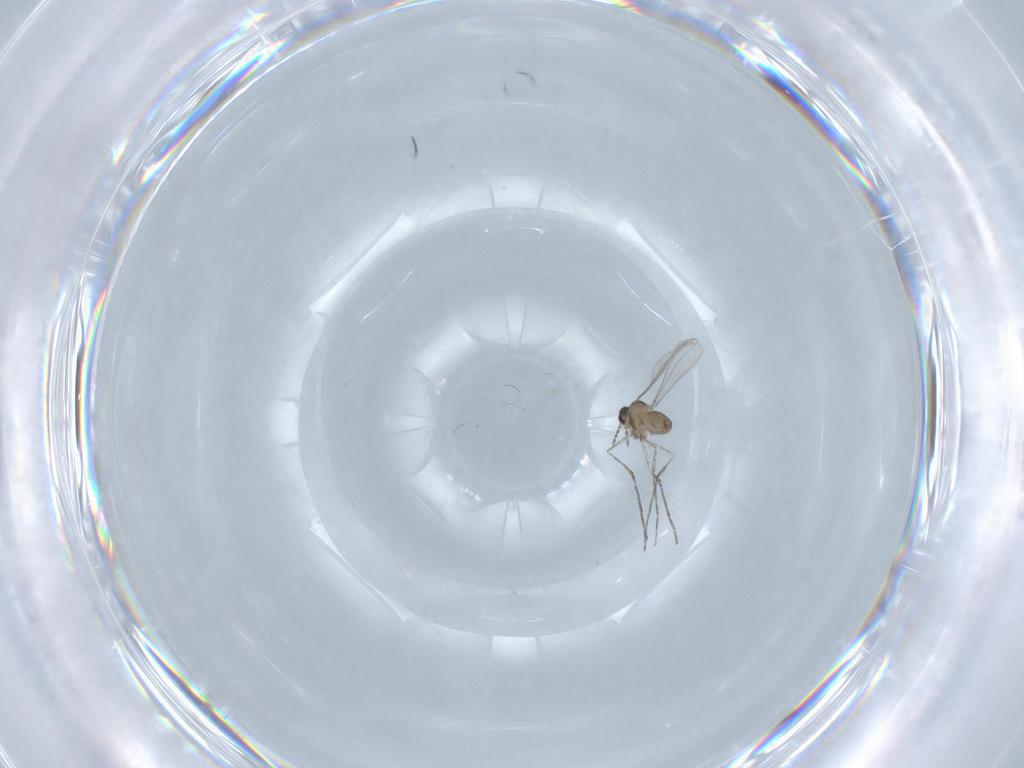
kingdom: Animalia
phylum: Arthropoda
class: Insecta
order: Diptera
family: Cecidomyiidae
